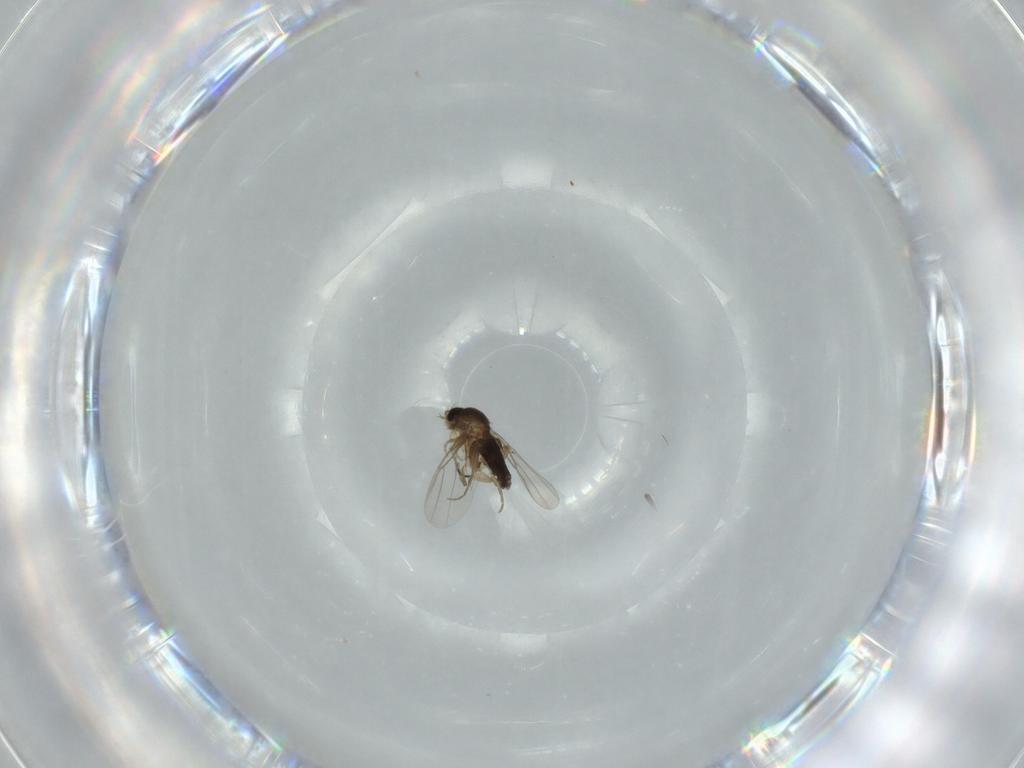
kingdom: Animalia
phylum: Arthropoda
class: Insecta
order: Diptera
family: Phoridae
